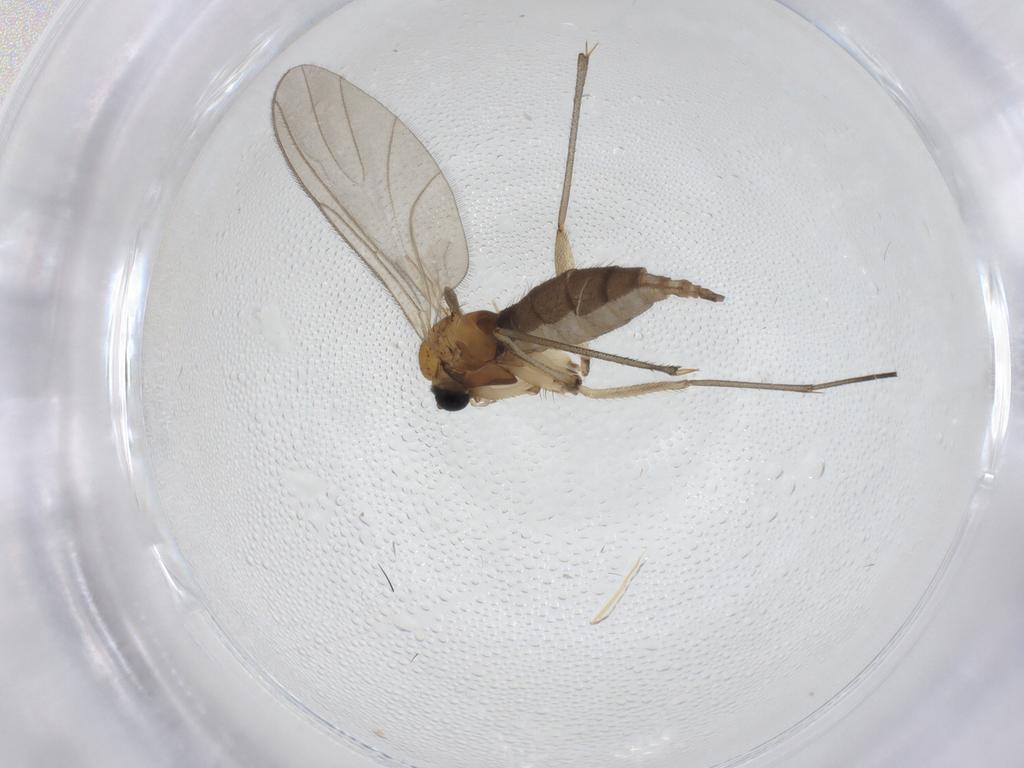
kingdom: Animalia
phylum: Arthropoda
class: Insecta
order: Diptera
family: Sciaridae
